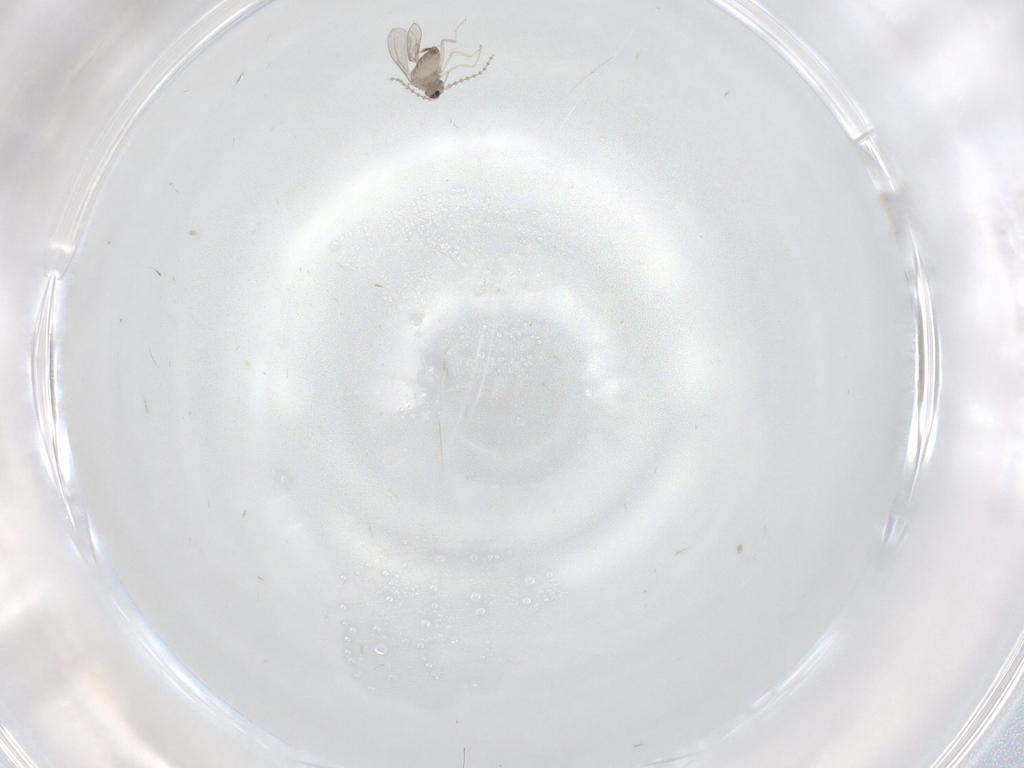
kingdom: Animalia
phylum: Arthropoda
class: Insecta
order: Diptera
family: Cecidomyiidae
